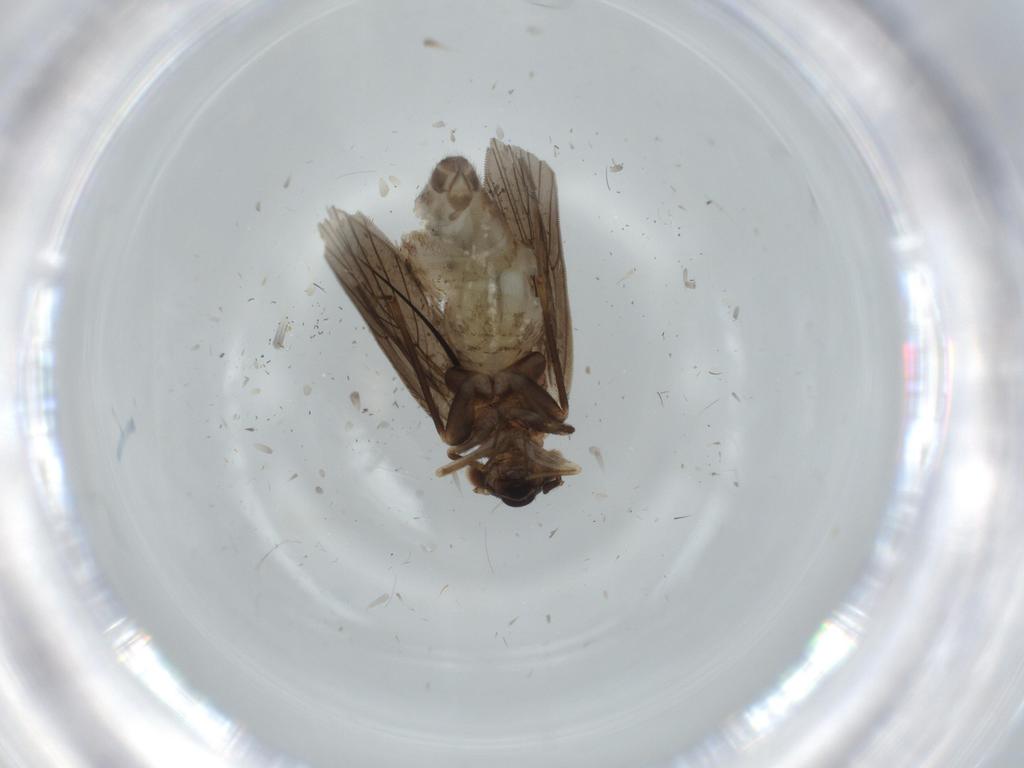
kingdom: Animalia
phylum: Arthropoda
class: Insecta
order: Psocodea
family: Lepidopsocidae
